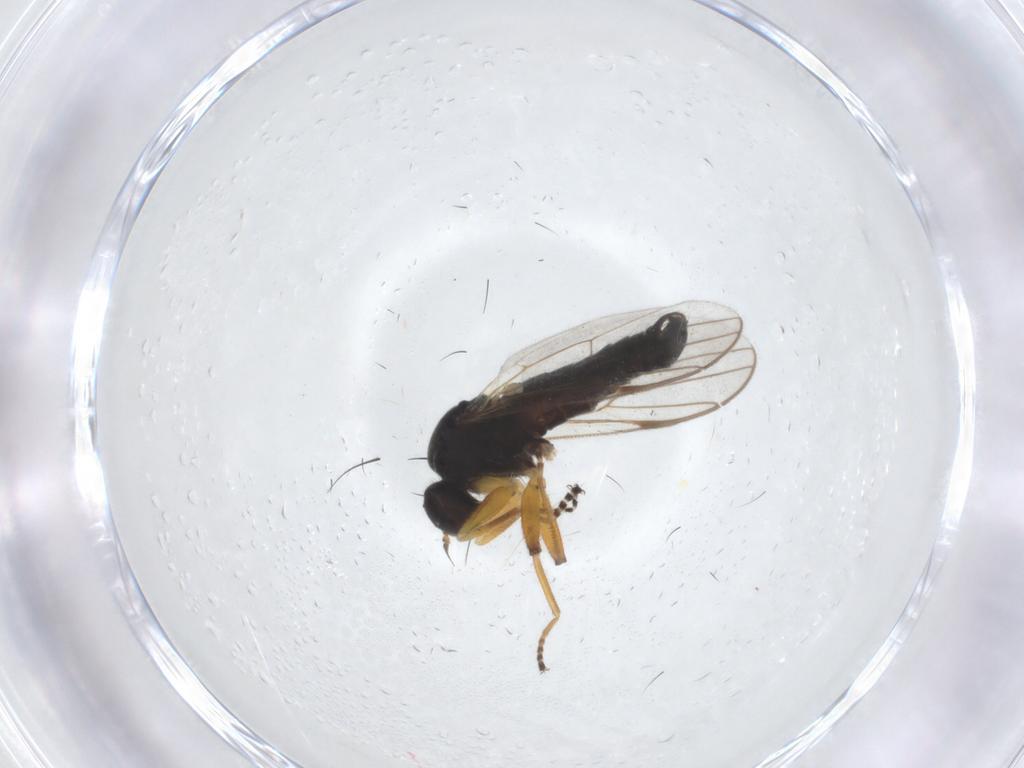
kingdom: Animalia
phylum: Arthropoda
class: Insecta
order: Diptera
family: Hybotidae
